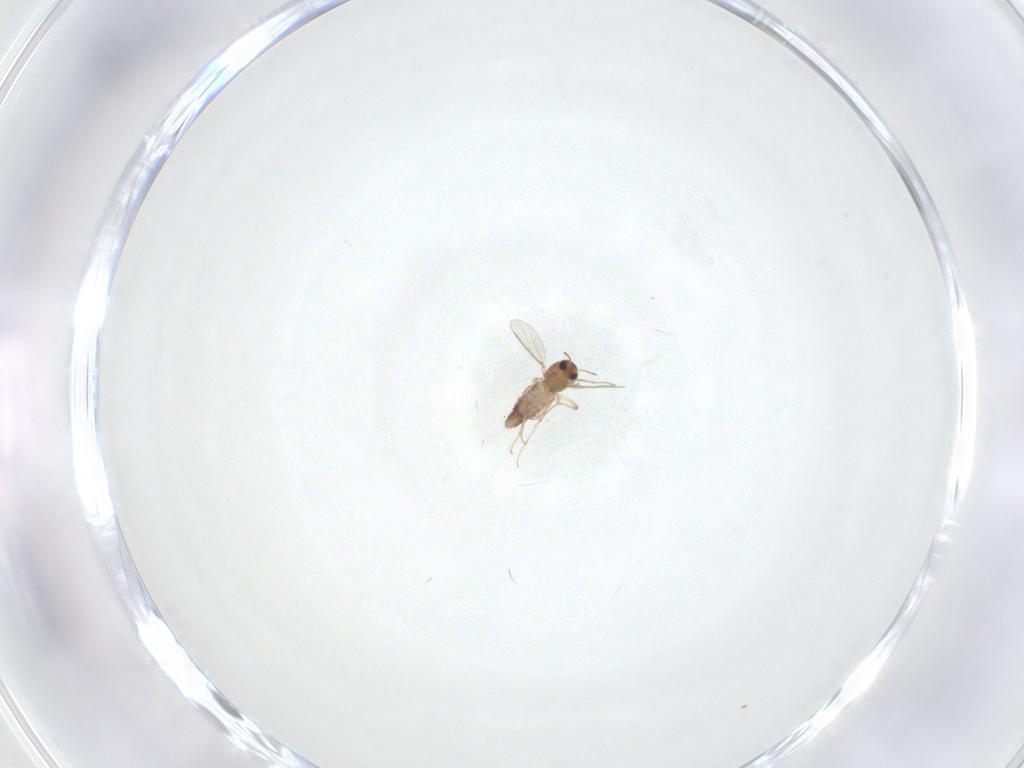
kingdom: Animalia
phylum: Arthropoda
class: Insecta
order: Diptera
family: Chironomidae
